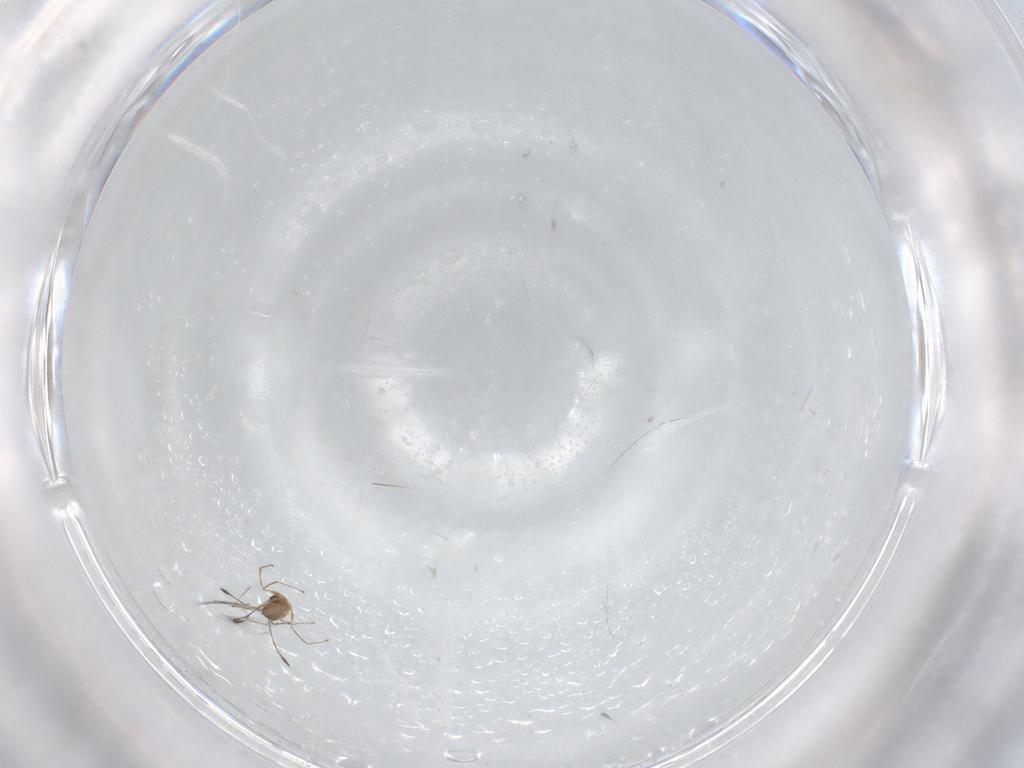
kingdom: Animalia
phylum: Arthropoda
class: Insecta
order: Hymenoptera
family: Mymaridae
